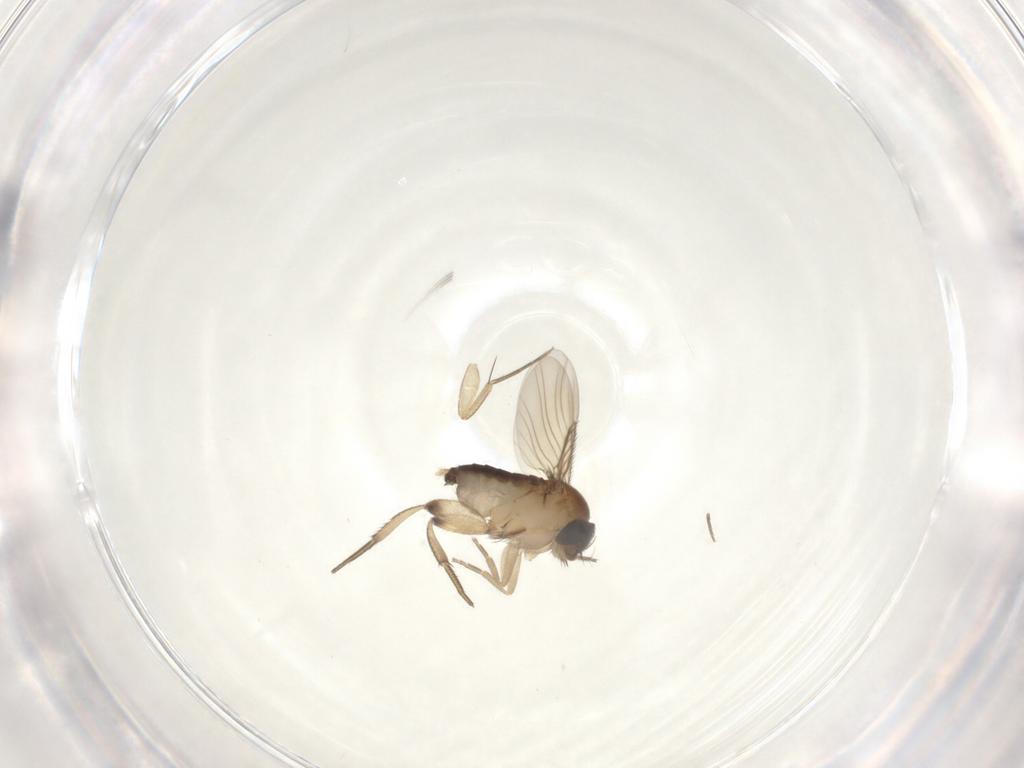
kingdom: Animalia
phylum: Arthropoda
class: Insecta
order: Diptera
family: Phoridae
